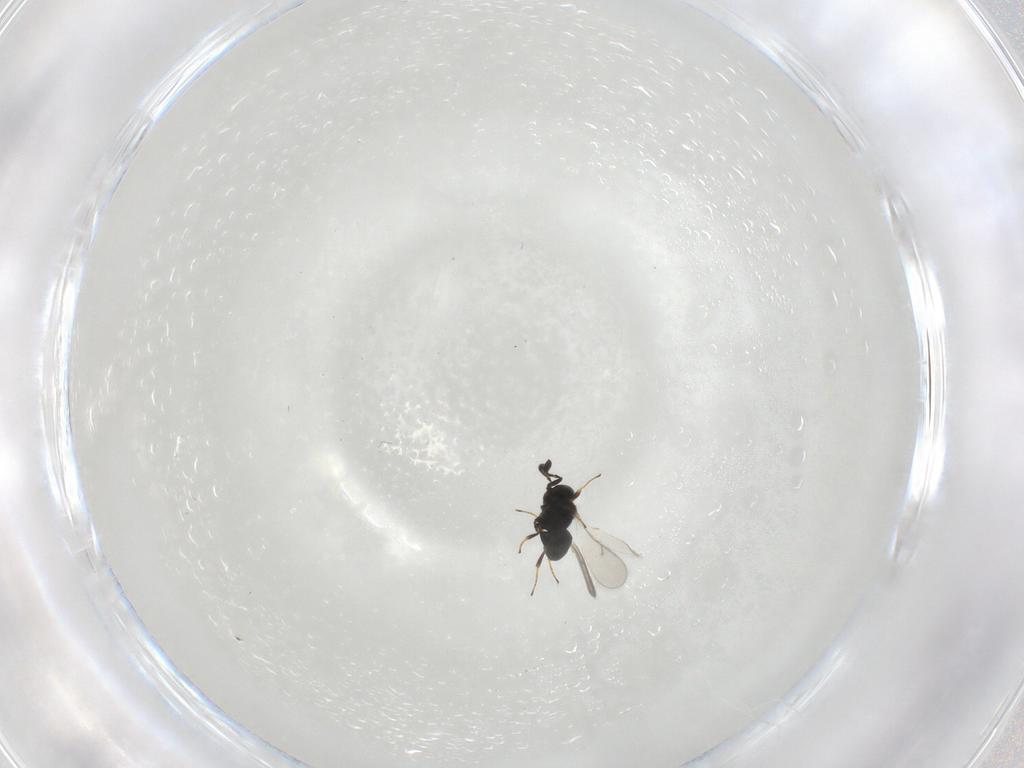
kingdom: Animalia
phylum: Arthropoda
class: Insecta
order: Hymenoptera
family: Scelionidae
